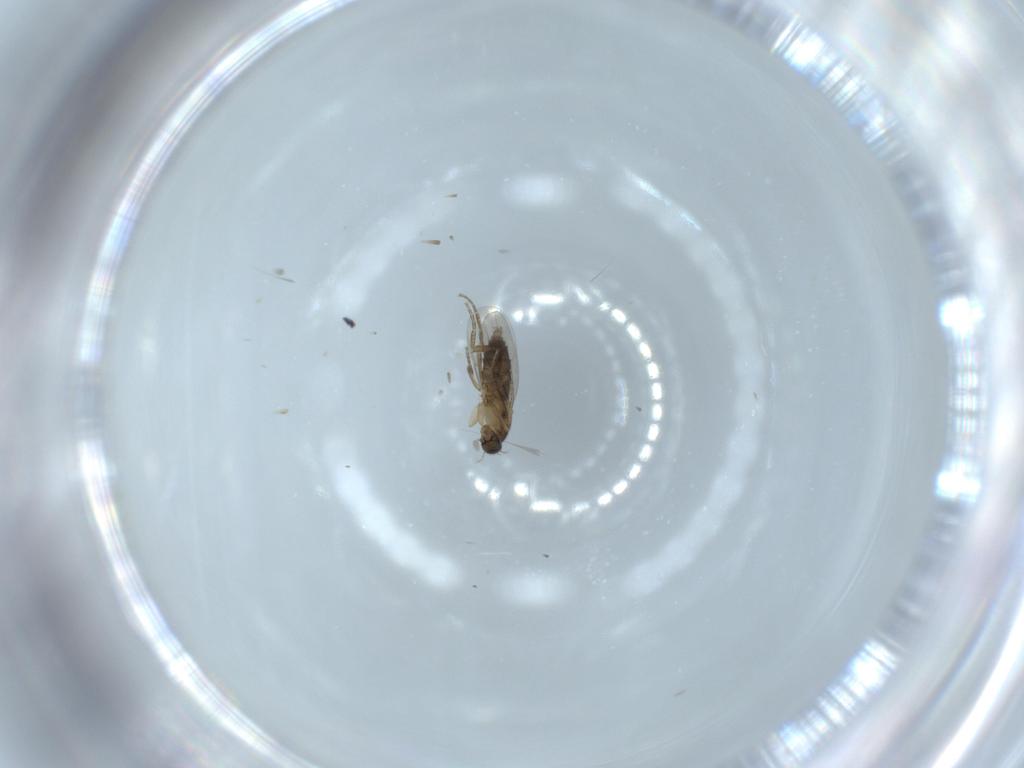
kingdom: Animalia
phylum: Arthropoda
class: Insecta
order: Diptera
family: Phoridae
